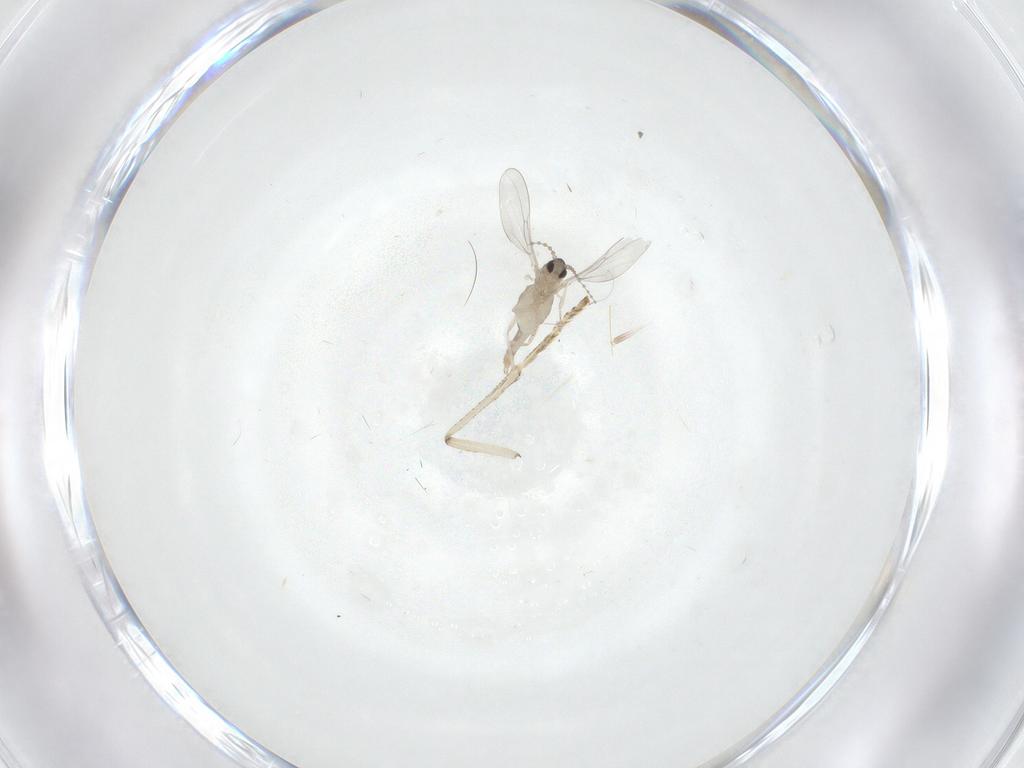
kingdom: Animalia
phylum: Arthropoda
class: Insecta
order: Diptera
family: Psychodidae
